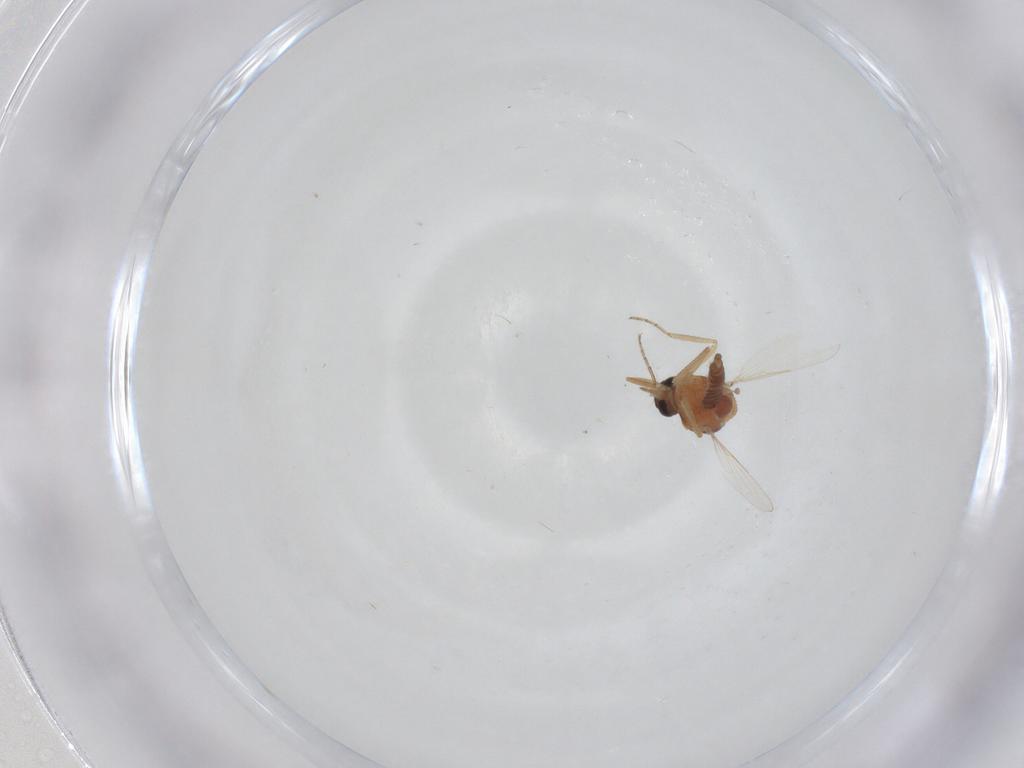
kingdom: Animalia
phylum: Arthropoda
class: Insecta
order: Diptera
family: Ceratopogonidae
